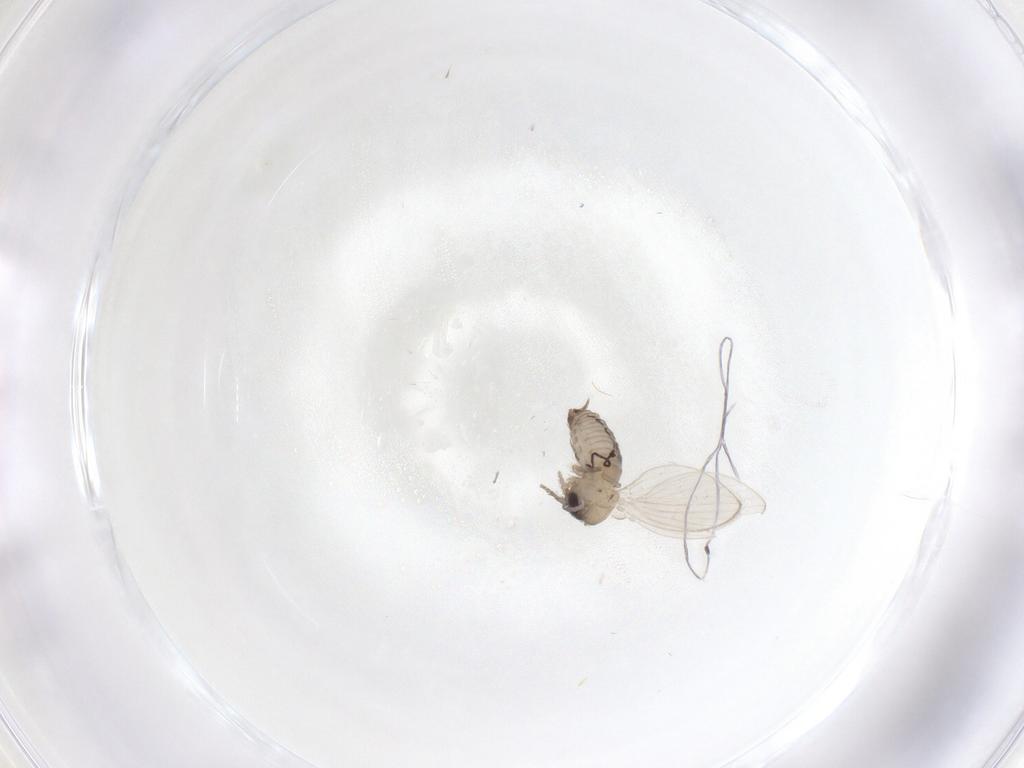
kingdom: Animalia
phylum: Arthropoda
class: Insecta
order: Diptera
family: Psychodidae
